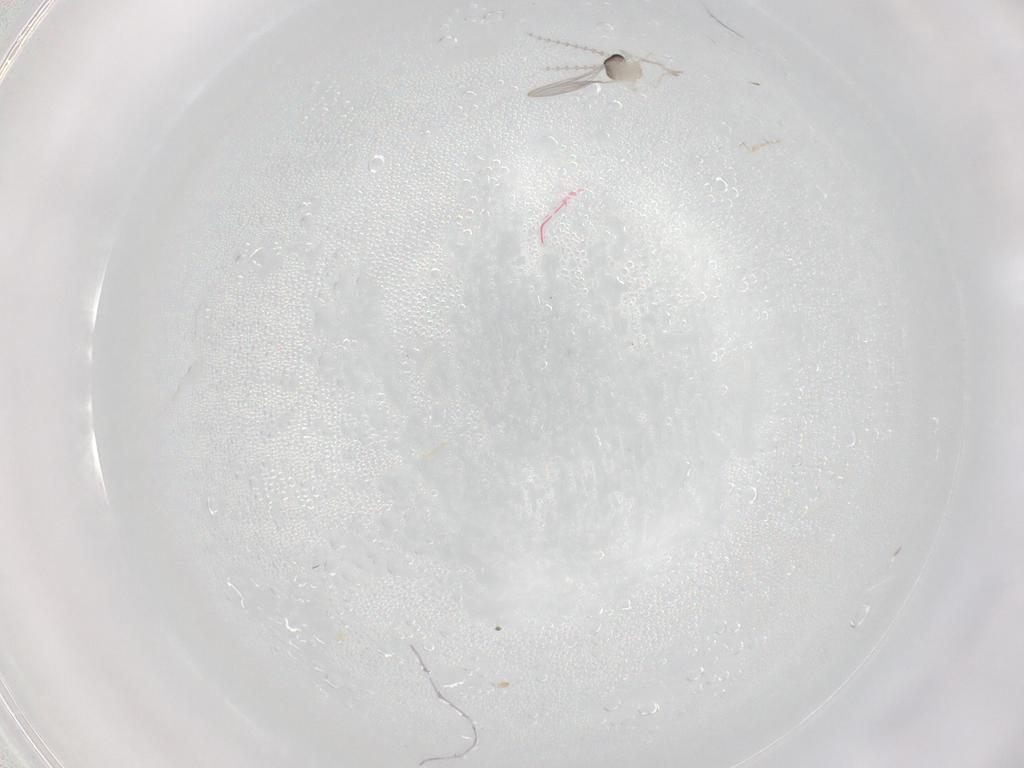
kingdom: Animalia
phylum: Arthropoda
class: Insecta
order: Diptera
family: Cecidomyiidae
